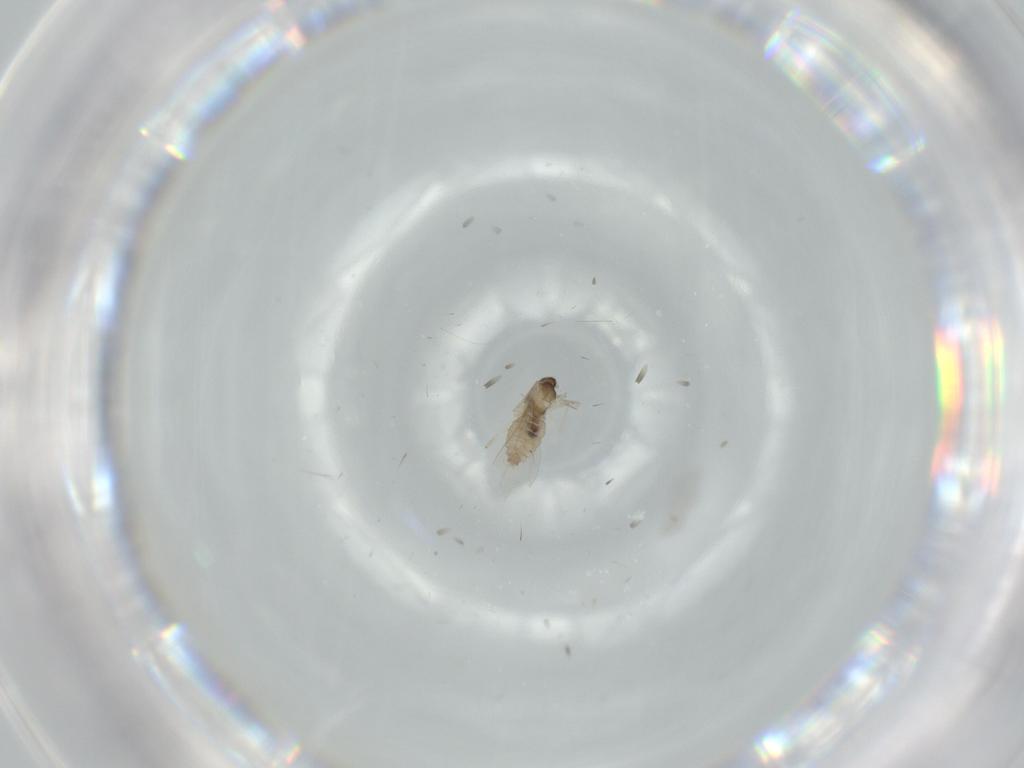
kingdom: Animalia
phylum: Arthropoda
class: Insecta
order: Diptera
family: Cecidomyiidae
